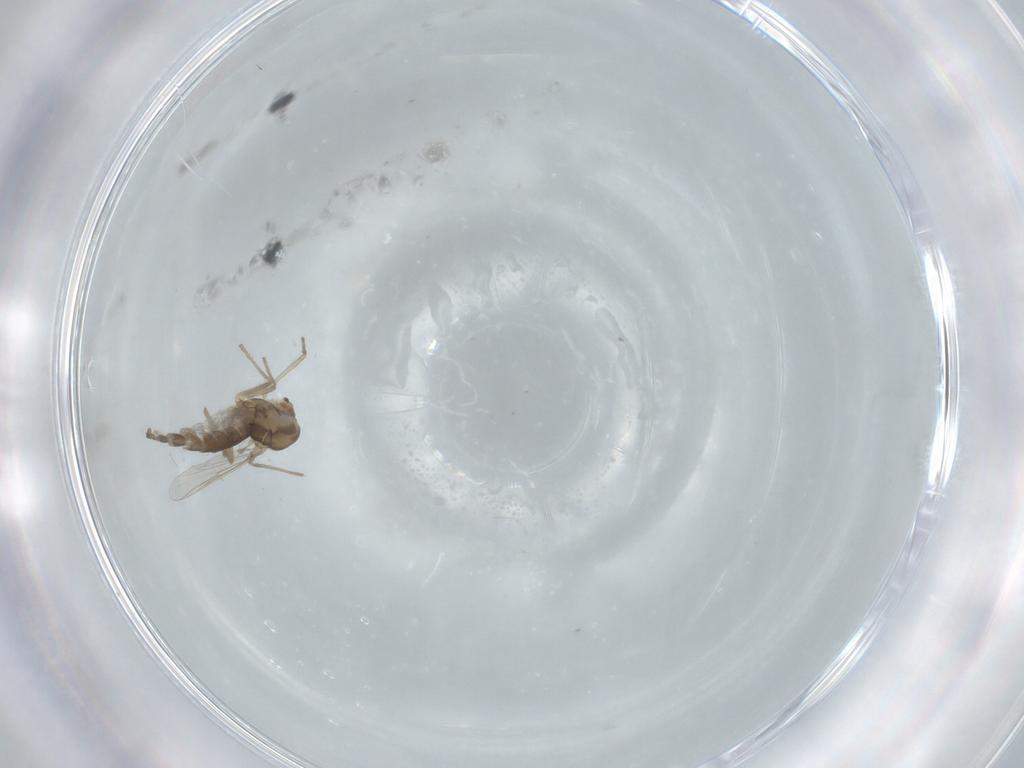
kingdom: Animalia
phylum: Arthropoda
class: Insecta
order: Diptera
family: Chironomidae
